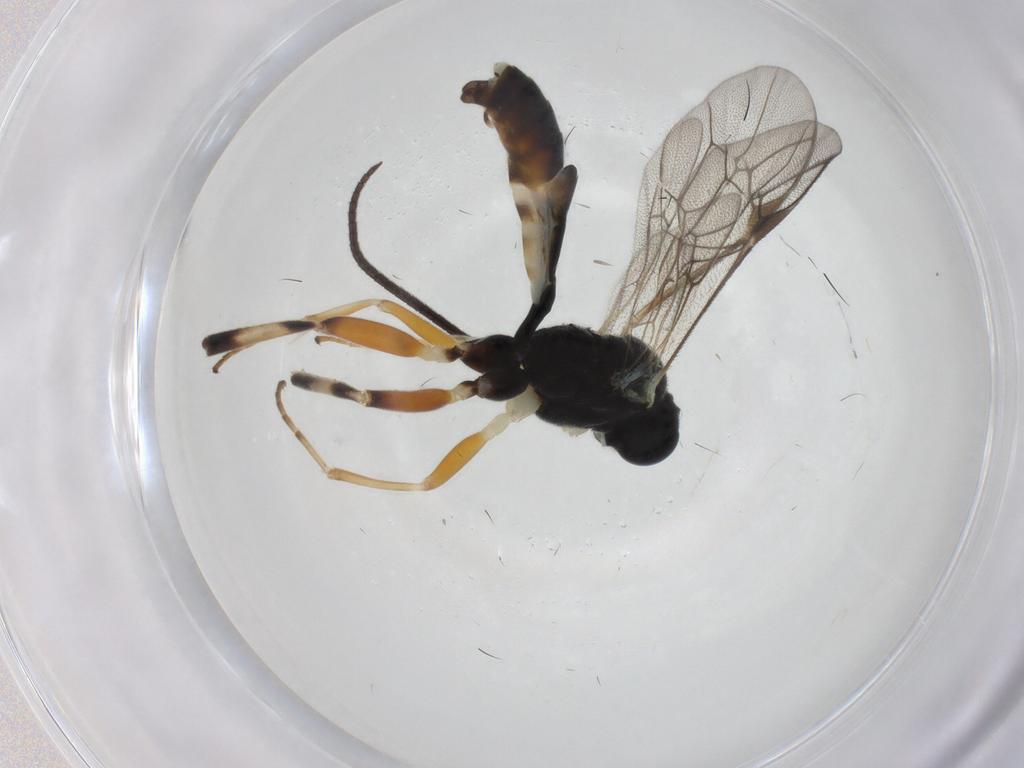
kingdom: Animalia
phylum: Arthropoda
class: Insecta
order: Hymenoptera
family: Ichneumonidae
